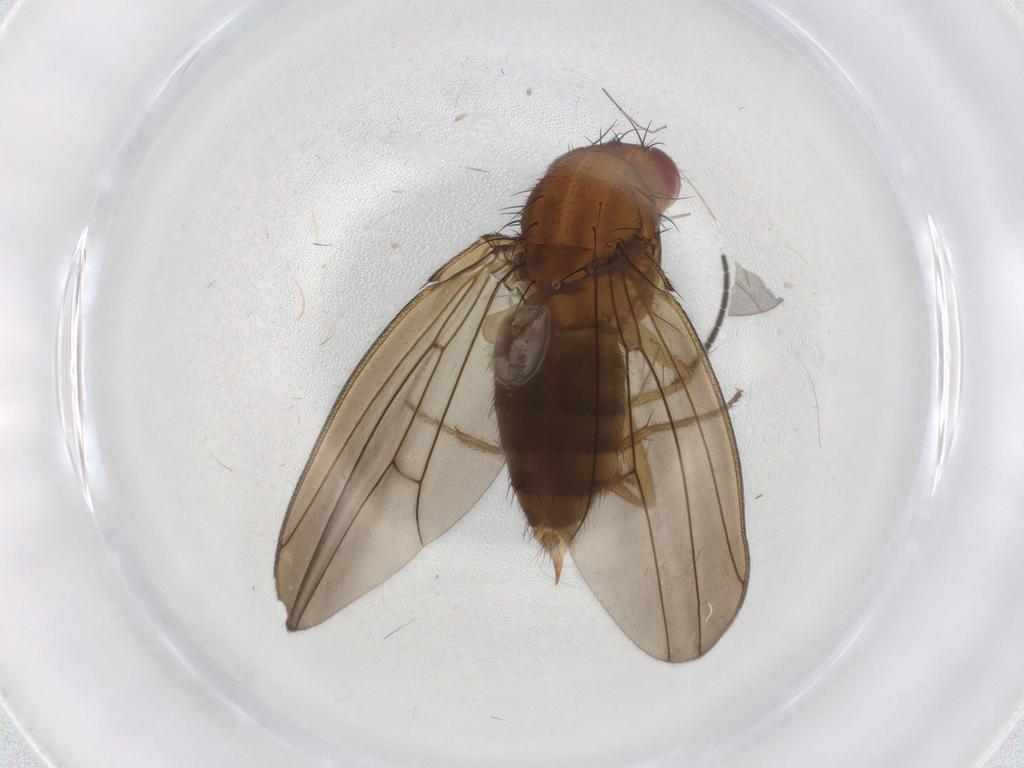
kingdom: Animalia
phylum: Arthropoda
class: Insecta
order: Diptera
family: Drosophilidae
